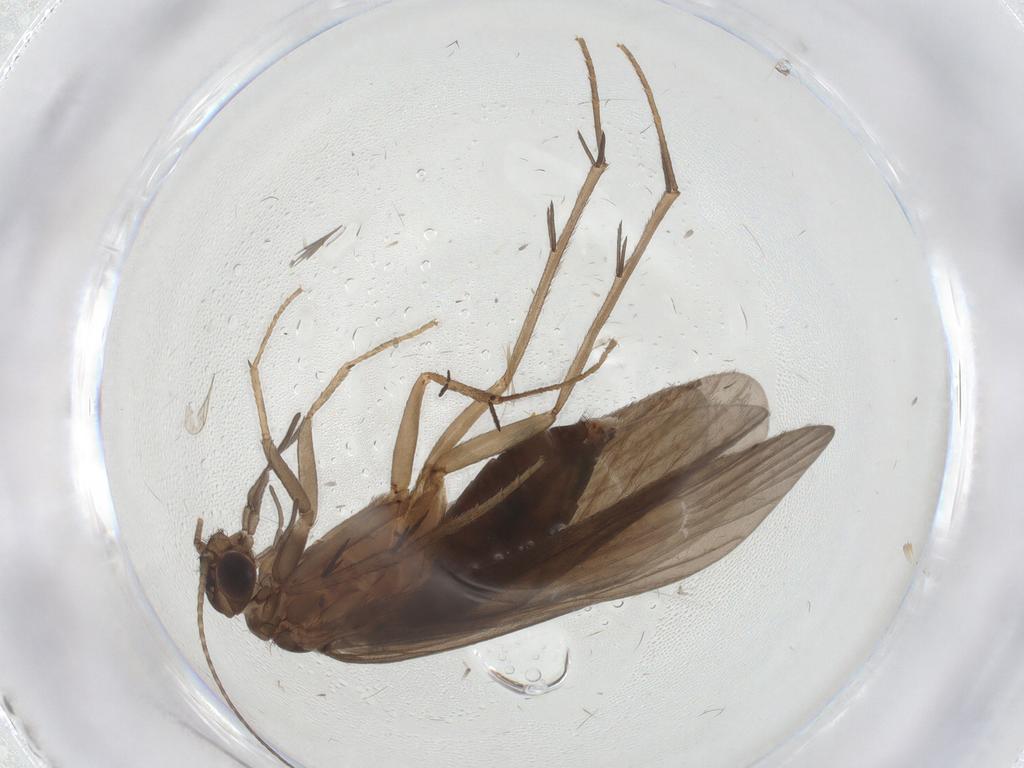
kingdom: Animalia
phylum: Arthropoda
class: Insecta
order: Trichoptera
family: Philopotamidae
